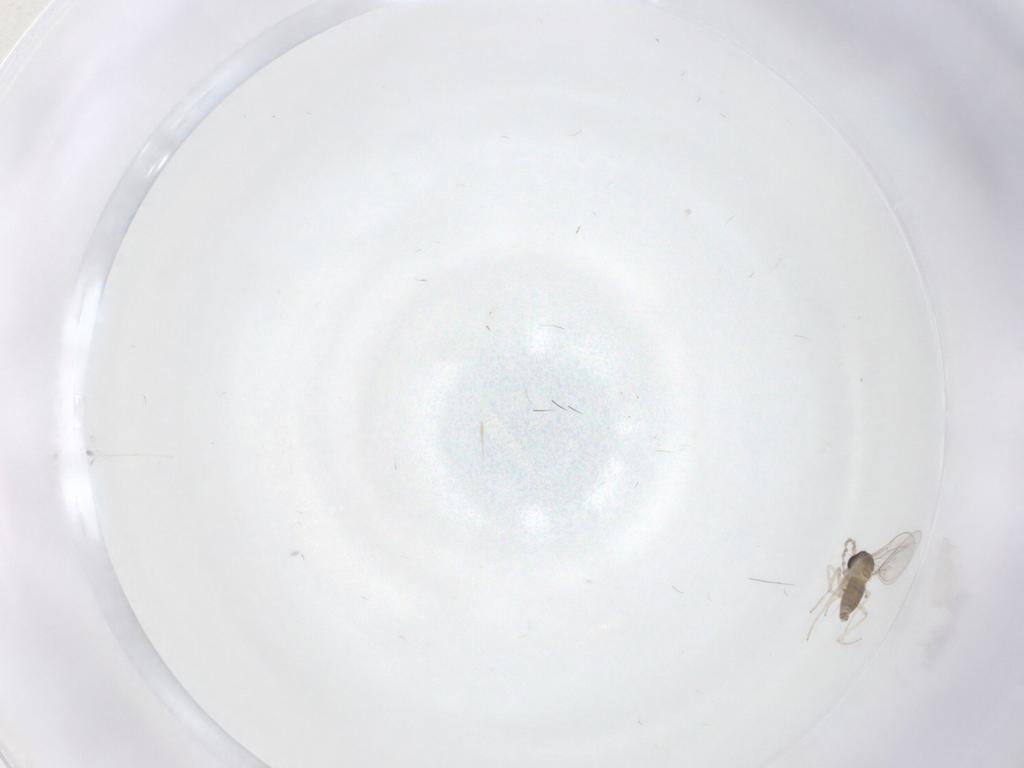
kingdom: Animalia
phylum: Arthropoda
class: Insecta
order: Diptera
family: Cecidomyiidae
